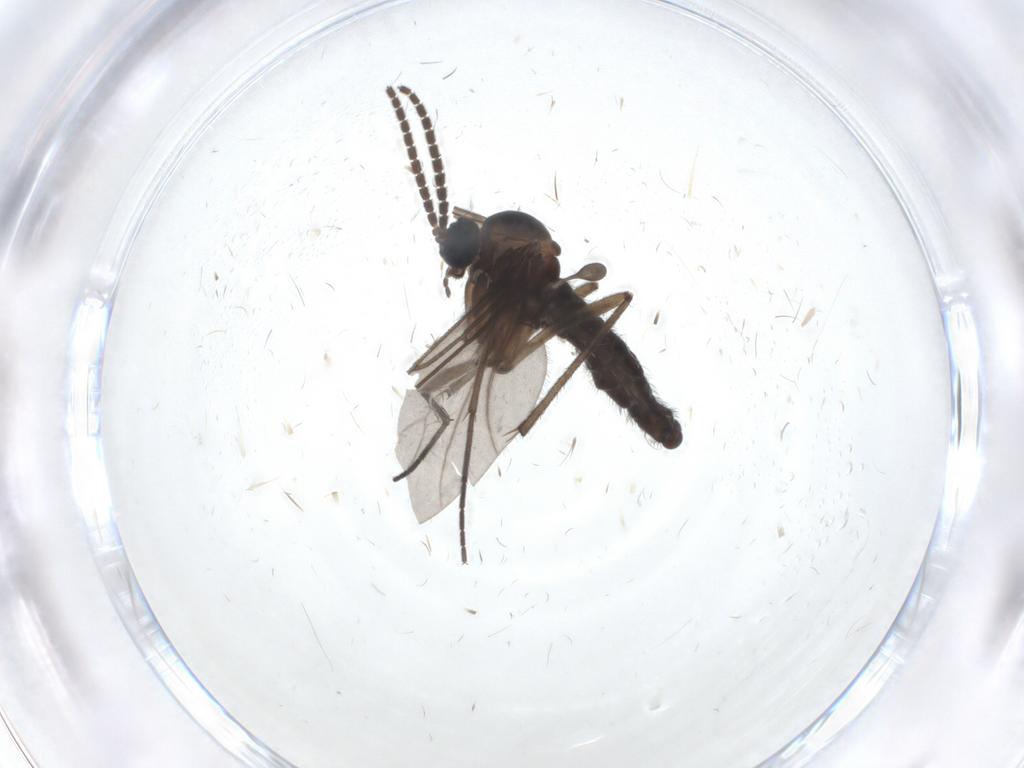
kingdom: Animalia
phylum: Arthropoda
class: Insecta
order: Diptera
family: Sciaridae
